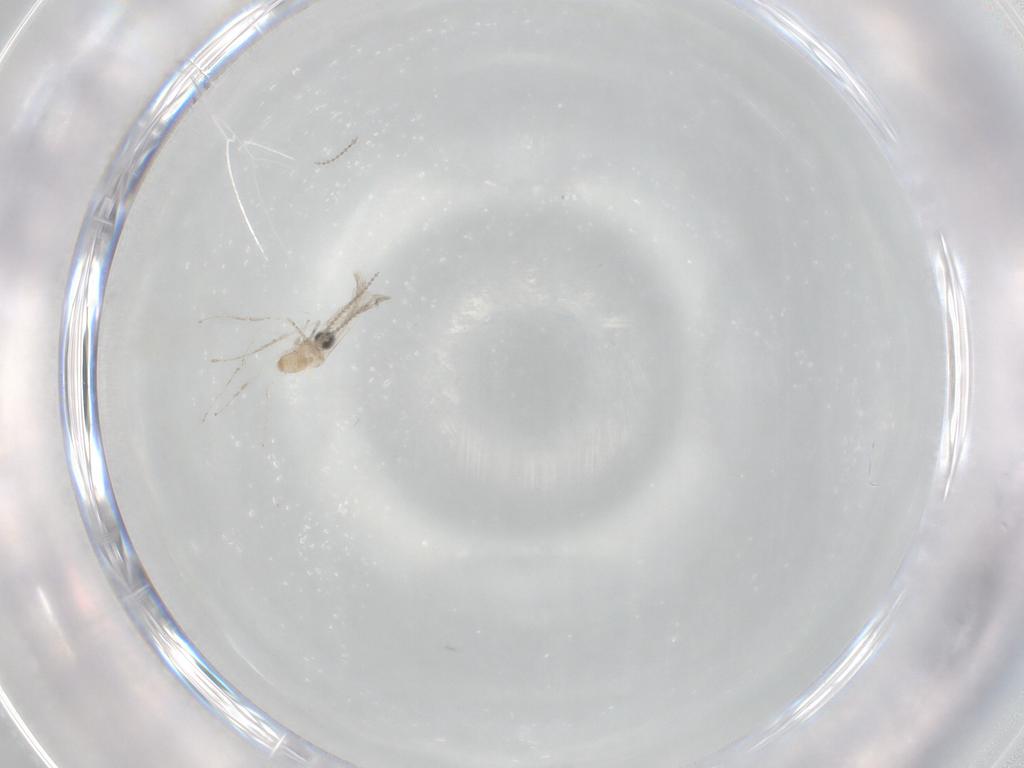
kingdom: Animalia
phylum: Arthropoda
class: Insecta
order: Diptera
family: Cecidomyiidae
